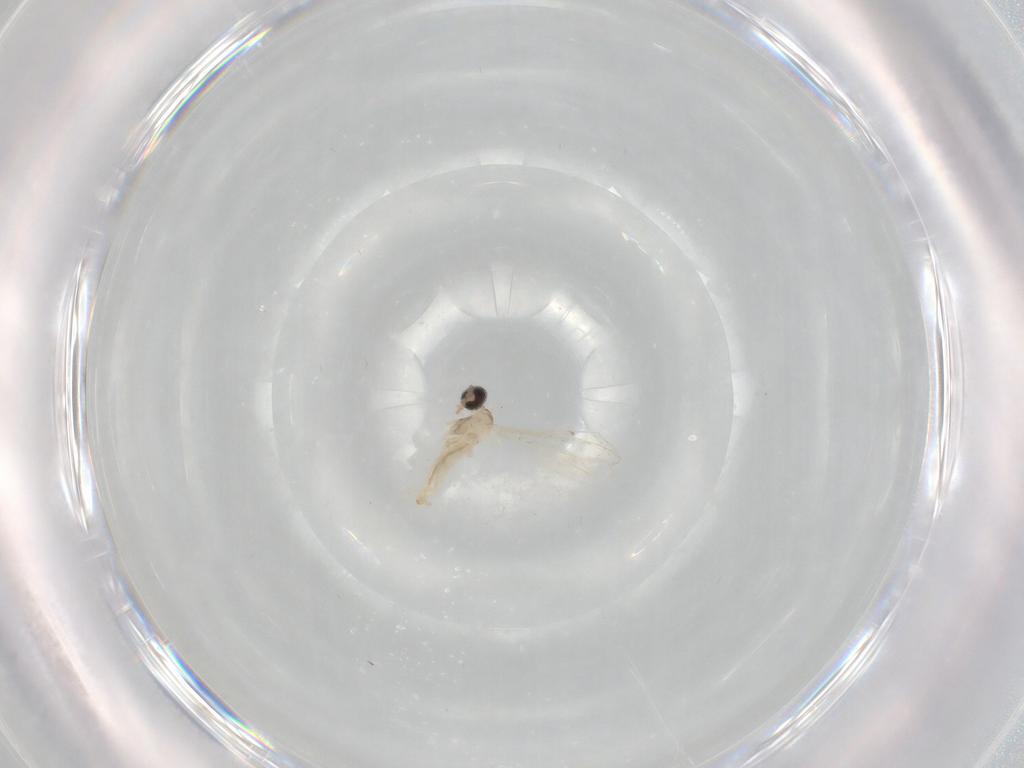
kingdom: Animalia
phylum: Arthropoda
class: Insecta
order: Diptera
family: Cecidomyiidae
